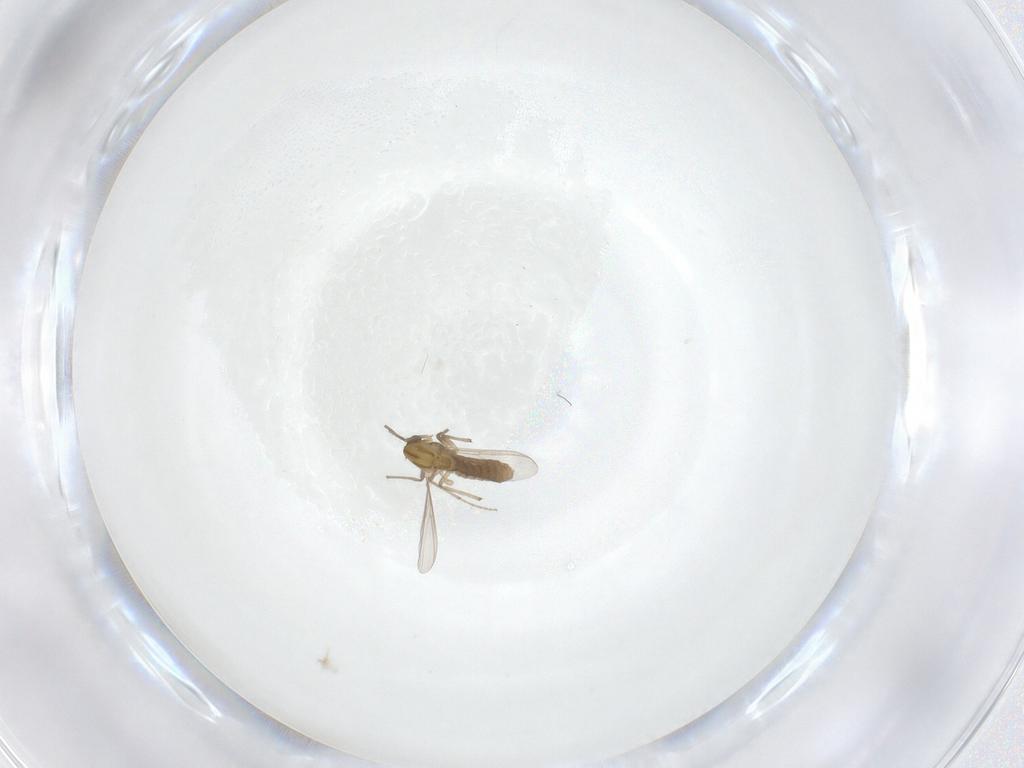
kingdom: Animalia
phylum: Arthropoda
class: Insecta
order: Diptera
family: Chironomidae
